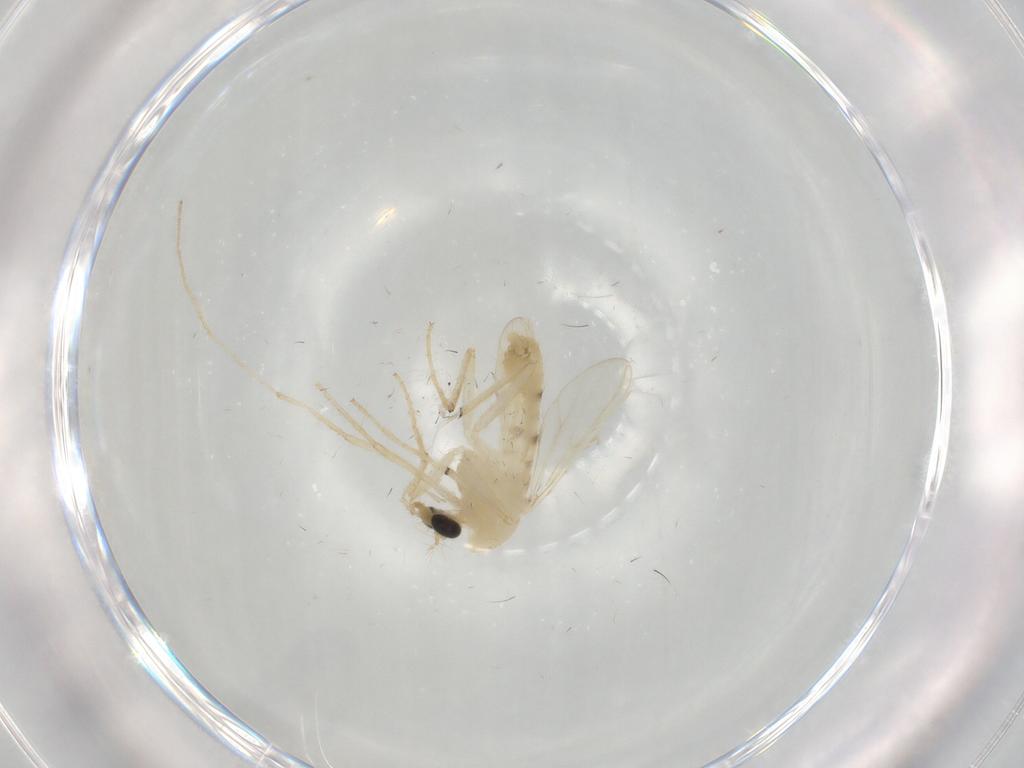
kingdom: Animalia
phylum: Arthropoda
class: Insecta
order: Diptera
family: Chironomidae
